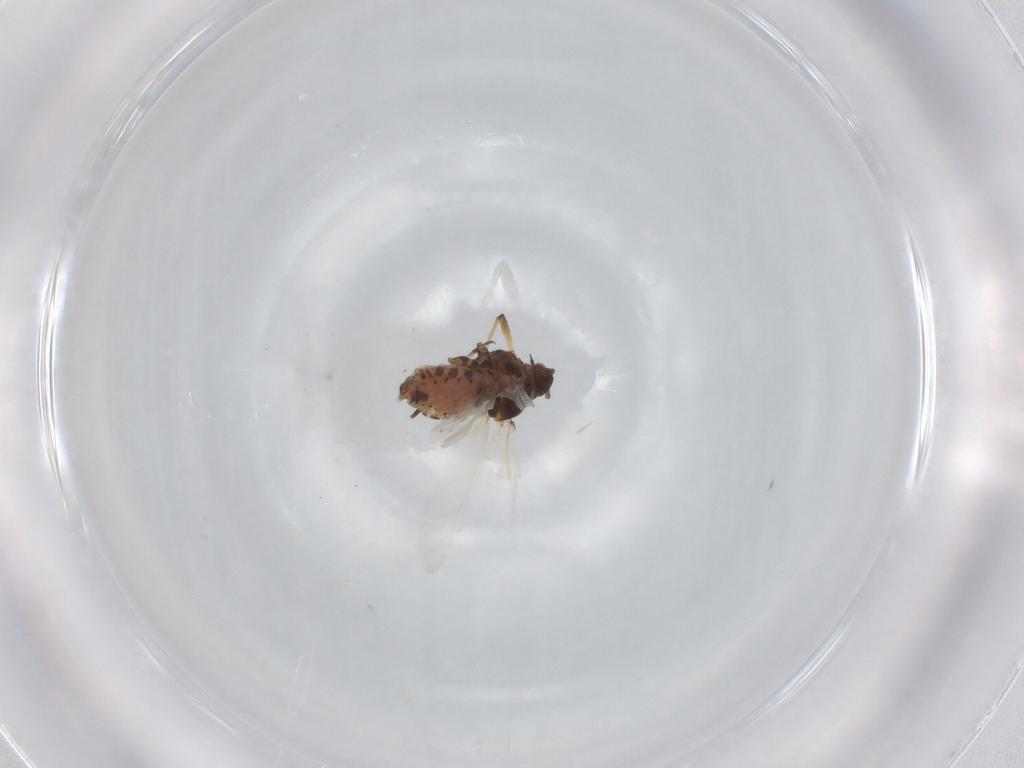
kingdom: Animalia
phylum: Arthropoda
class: Insecta
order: Hemiptera
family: Aphididae
